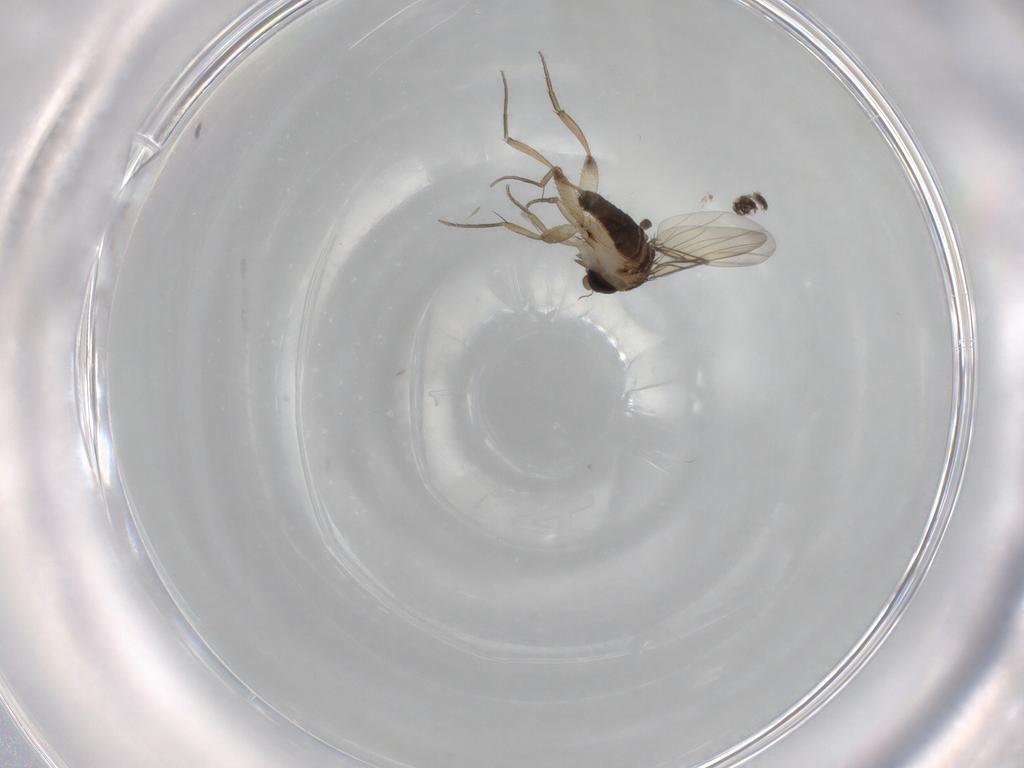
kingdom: Animalia
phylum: Arthropoda
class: Insecta
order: Diptera
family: Phoridae
